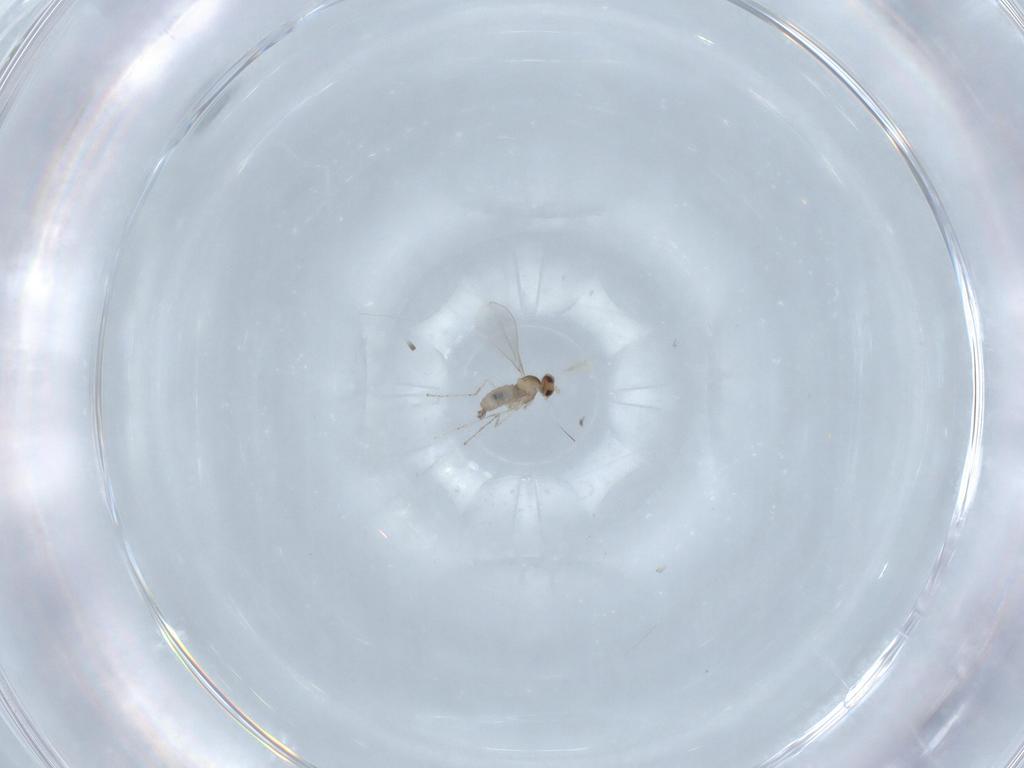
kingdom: Animalia
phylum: Arthropoda
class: Insecta
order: Diptera
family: Cecidomyiidae
